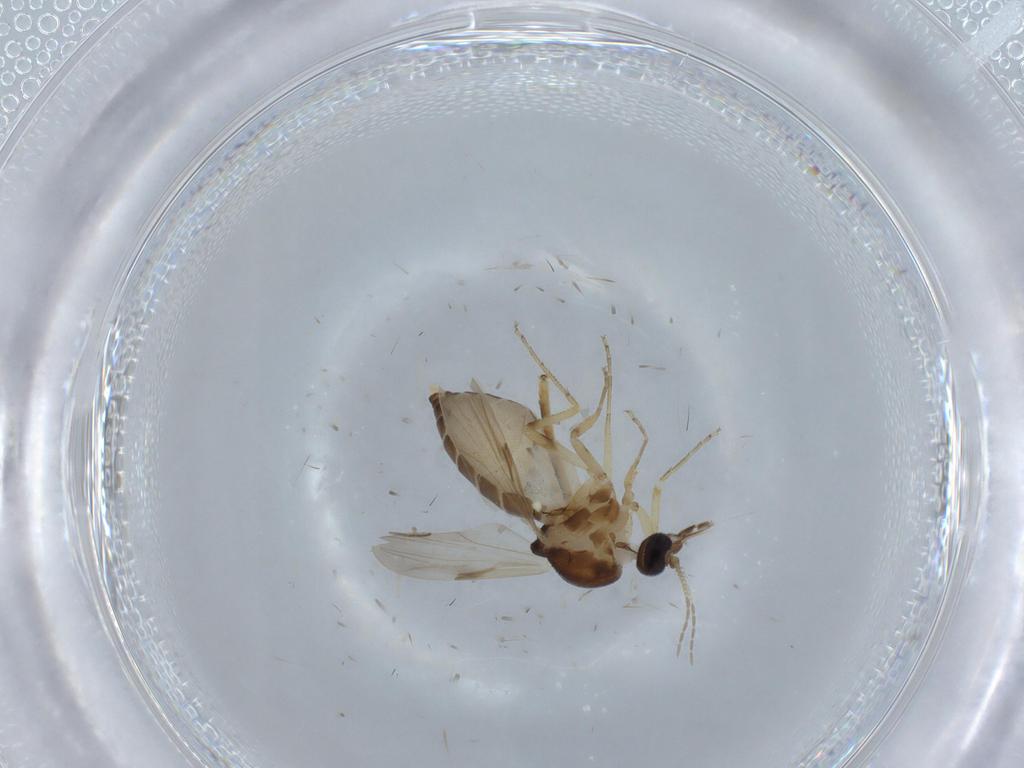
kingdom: Animalia
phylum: Arthropoda
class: Insecta
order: Diptera
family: Ceratopogonidae
